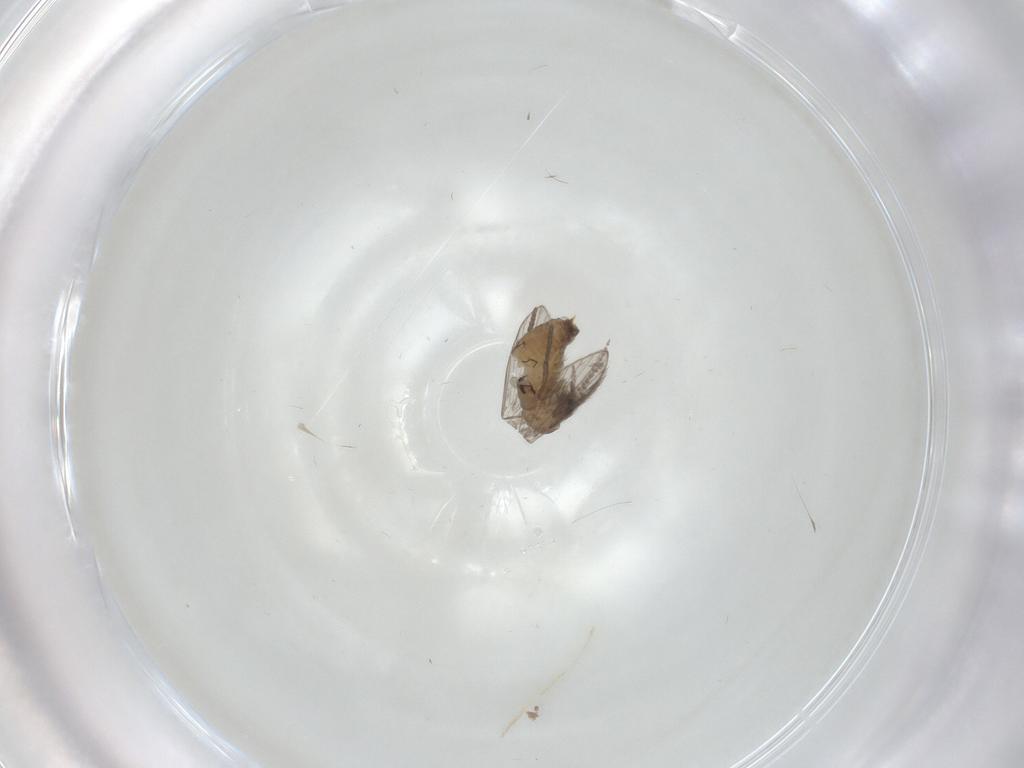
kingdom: Animalia
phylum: Arthropoda
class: Insecta
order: Diptera
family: Psychodidae
